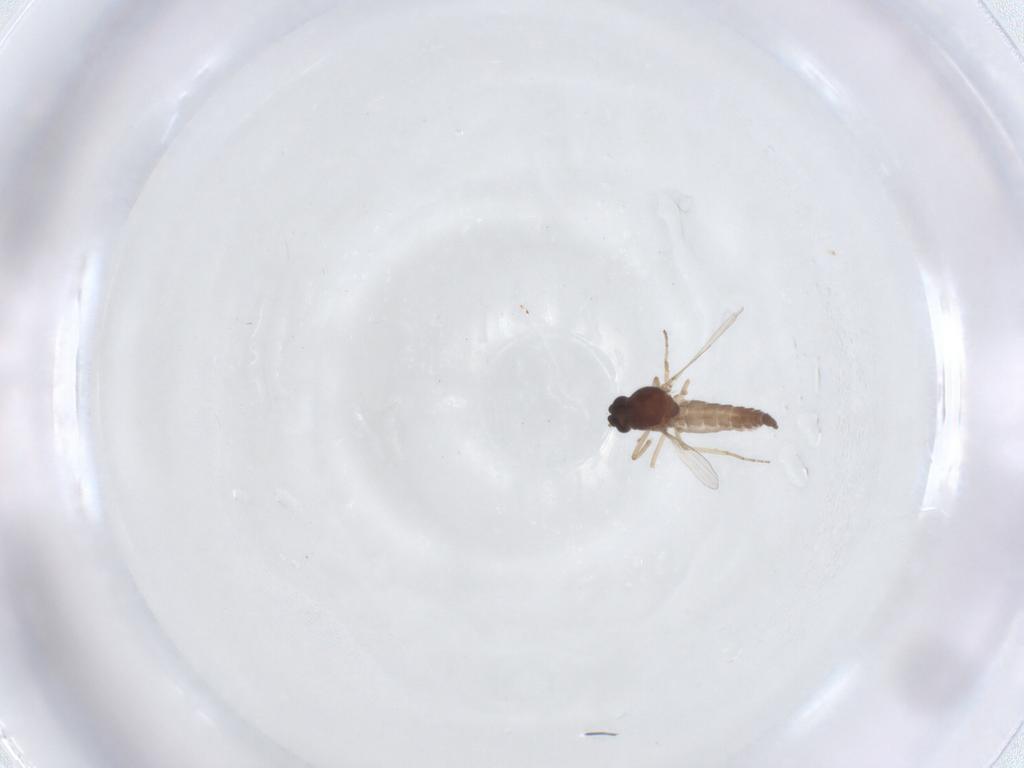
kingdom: Animalia
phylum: Arthropoda
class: Insecta
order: Diptera
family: Ceratopogonidae
